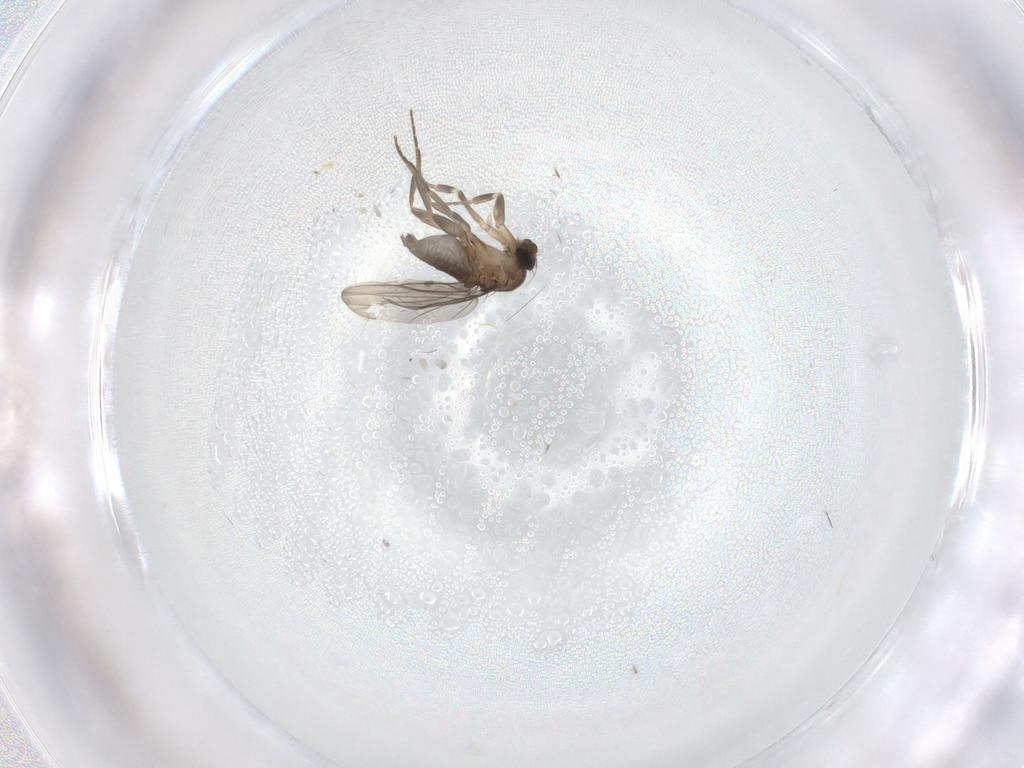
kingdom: Animalia
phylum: Arthropoda
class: Insecta
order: Diptera
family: Sciaridae
